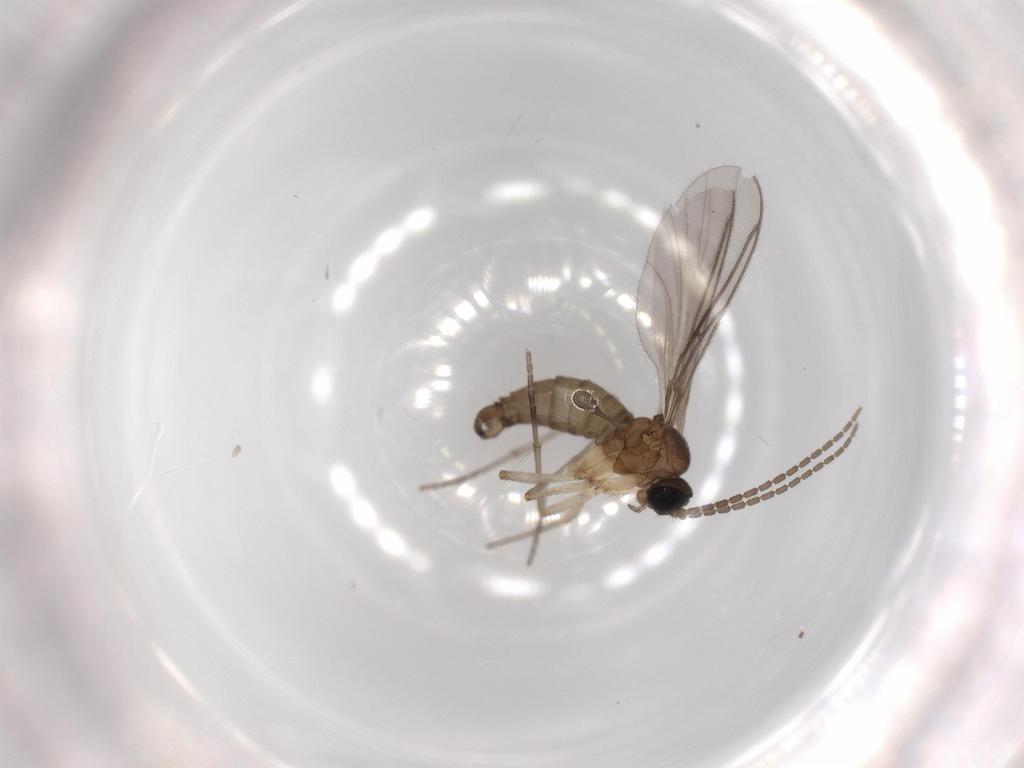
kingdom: Animalia
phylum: Arthropoda
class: Insecta
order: Diptera
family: Sciaridae
